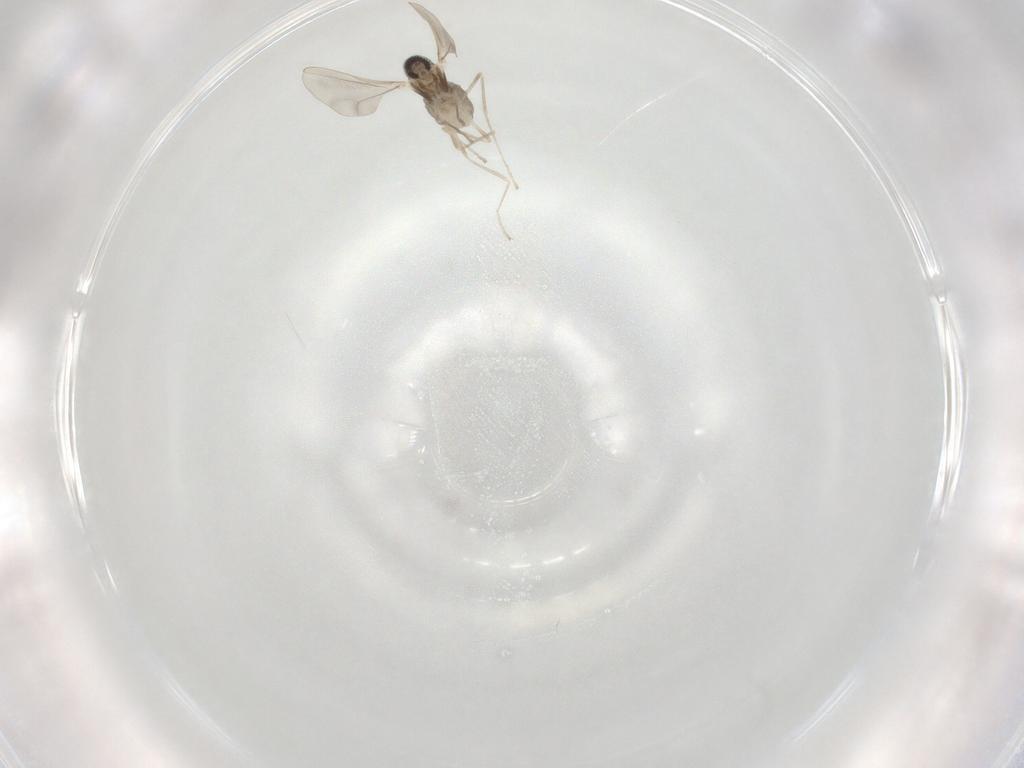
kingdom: Animalia
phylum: Arthropoda
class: Insecta
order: Diptera
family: Cecidomyiidae
